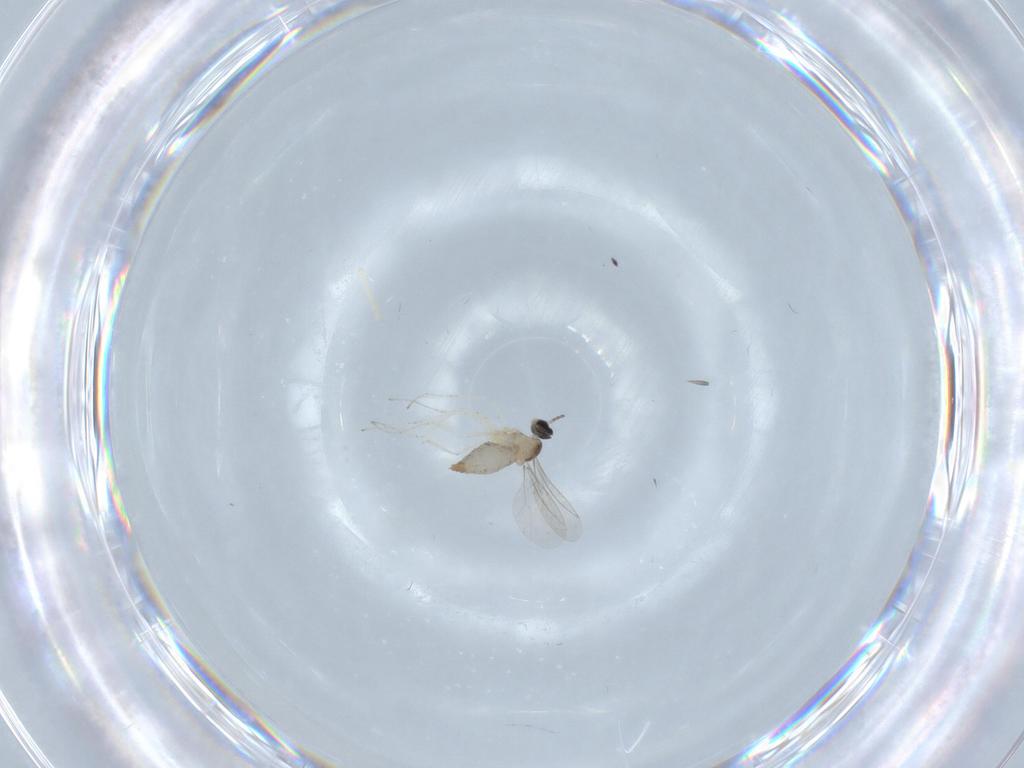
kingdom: Animalia
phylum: Arthropoda
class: Insecta
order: Diptera
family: Cecidomyiidae
